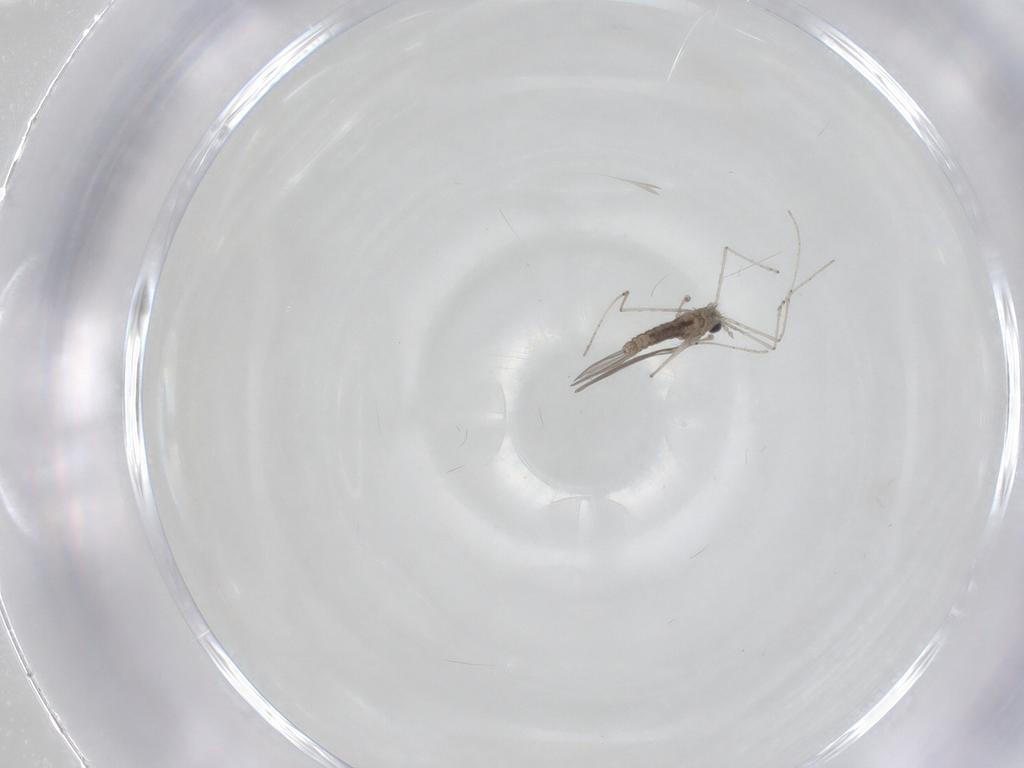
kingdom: Animalia
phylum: Arthropoda
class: Insecta
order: Diptera
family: Cecidomyiidae
